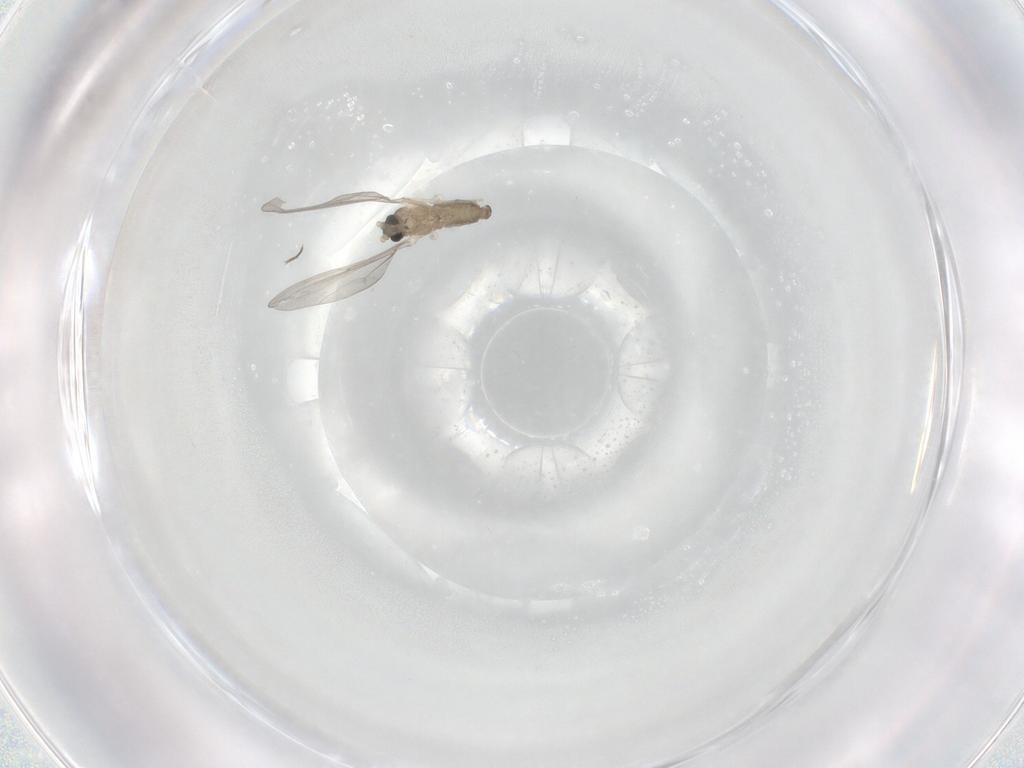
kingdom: Animalia
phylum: Arthropoda
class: Insecta
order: Diptera
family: Cecidomyiidae
